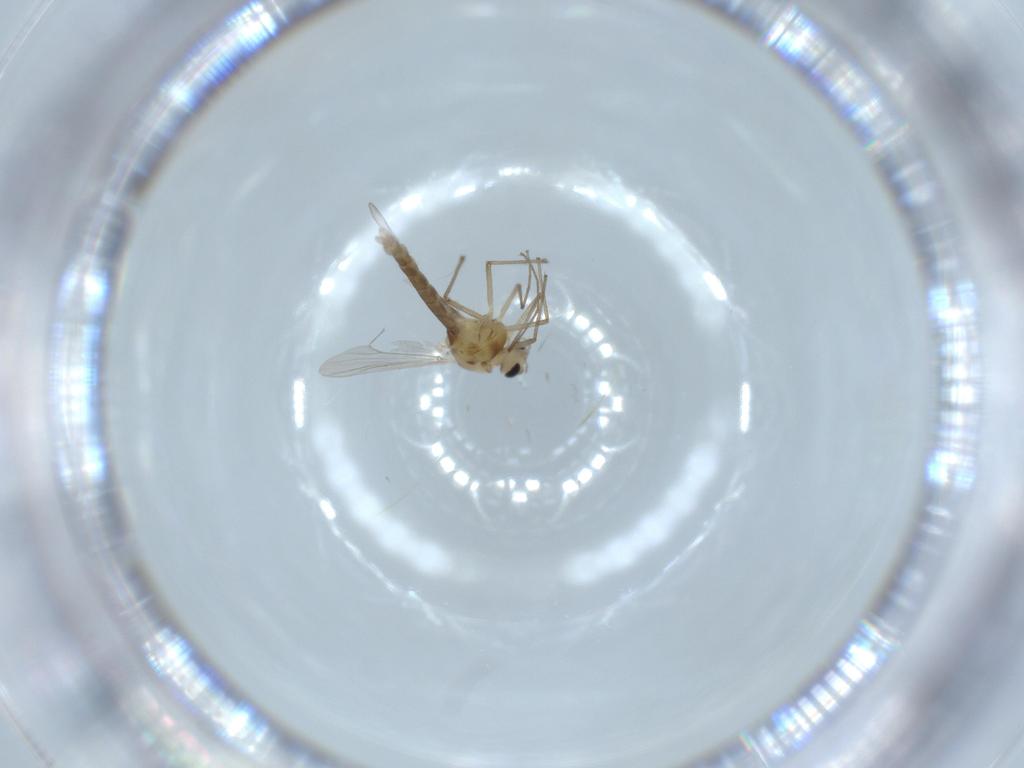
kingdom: Animalia
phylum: Arthropoda
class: Insecta
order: Diptera
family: Chironomidae
